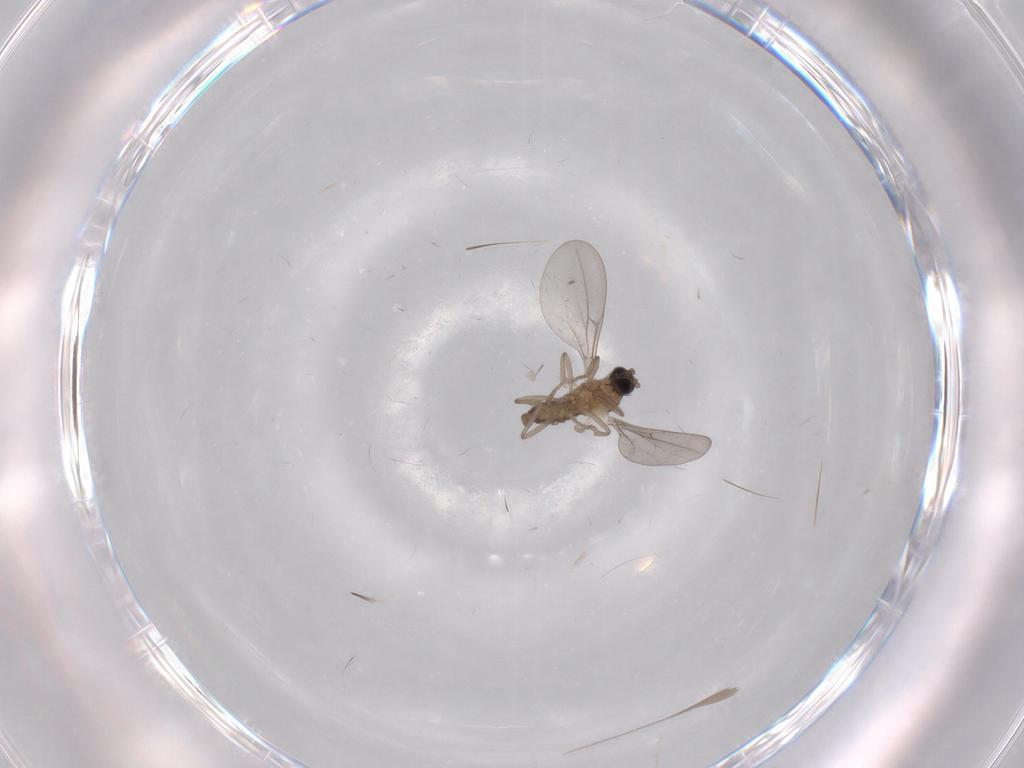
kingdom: Animalia
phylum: Arthropoda
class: Insecta
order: Diptera
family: Cecidomyiidae
